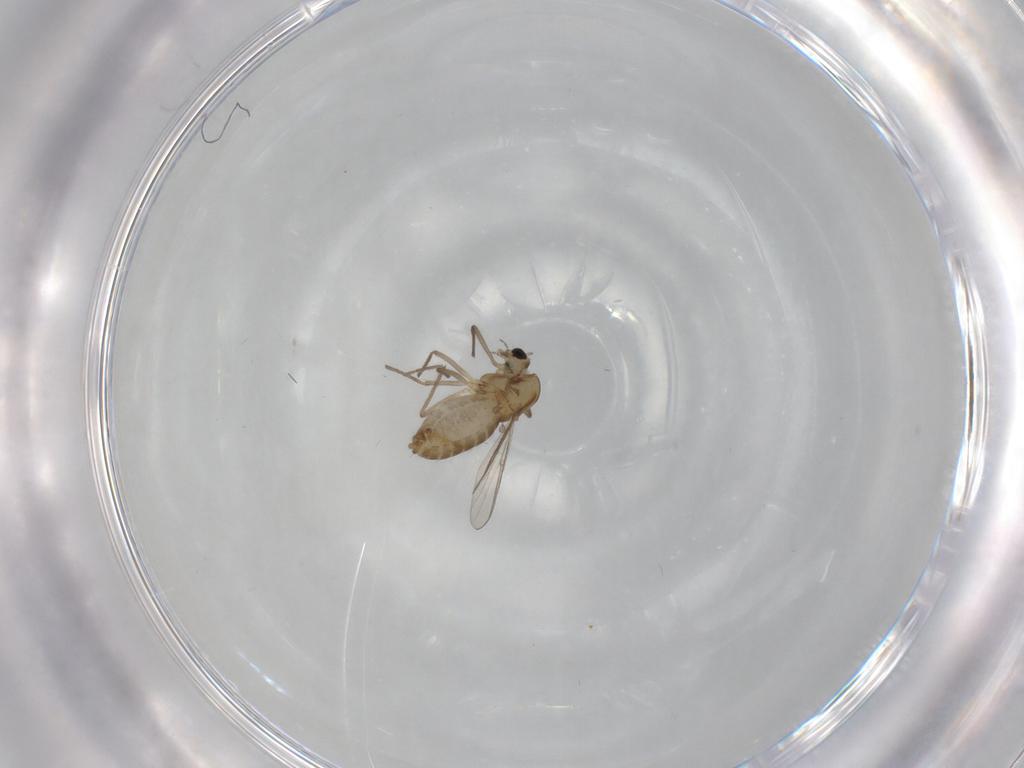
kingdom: Animalia
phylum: Arthropoda
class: Insecta
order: Diptera
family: Chironomidae
